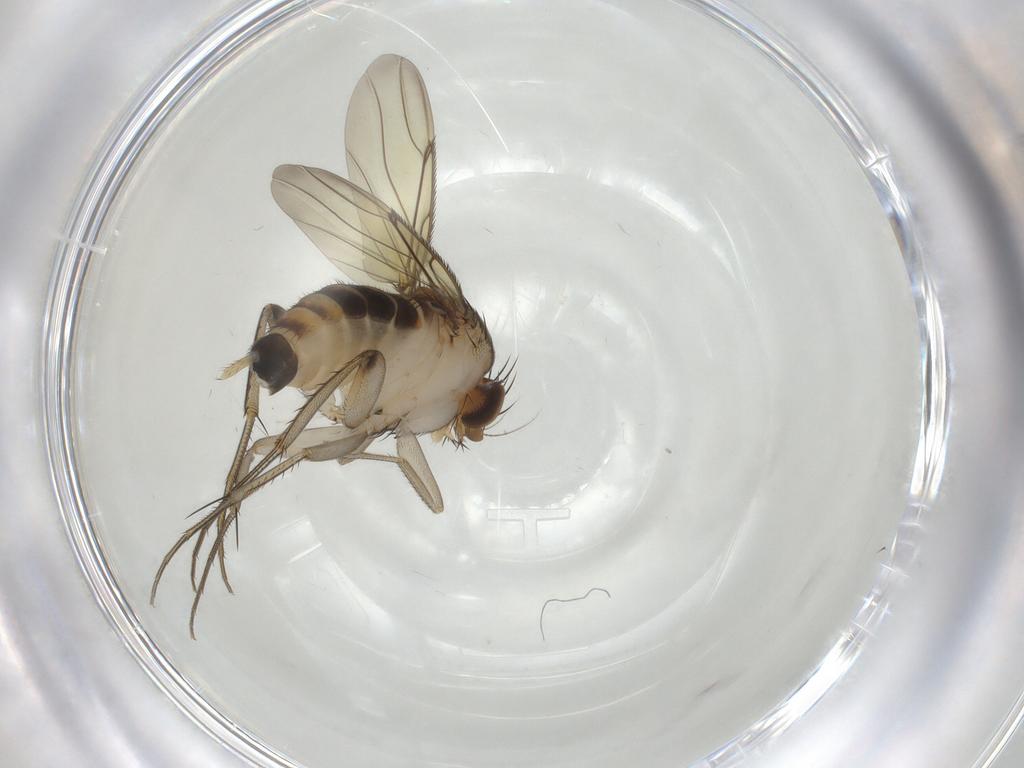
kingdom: Animalia
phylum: Arthropoda
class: Insecta
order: Diptera
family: Phoridae
